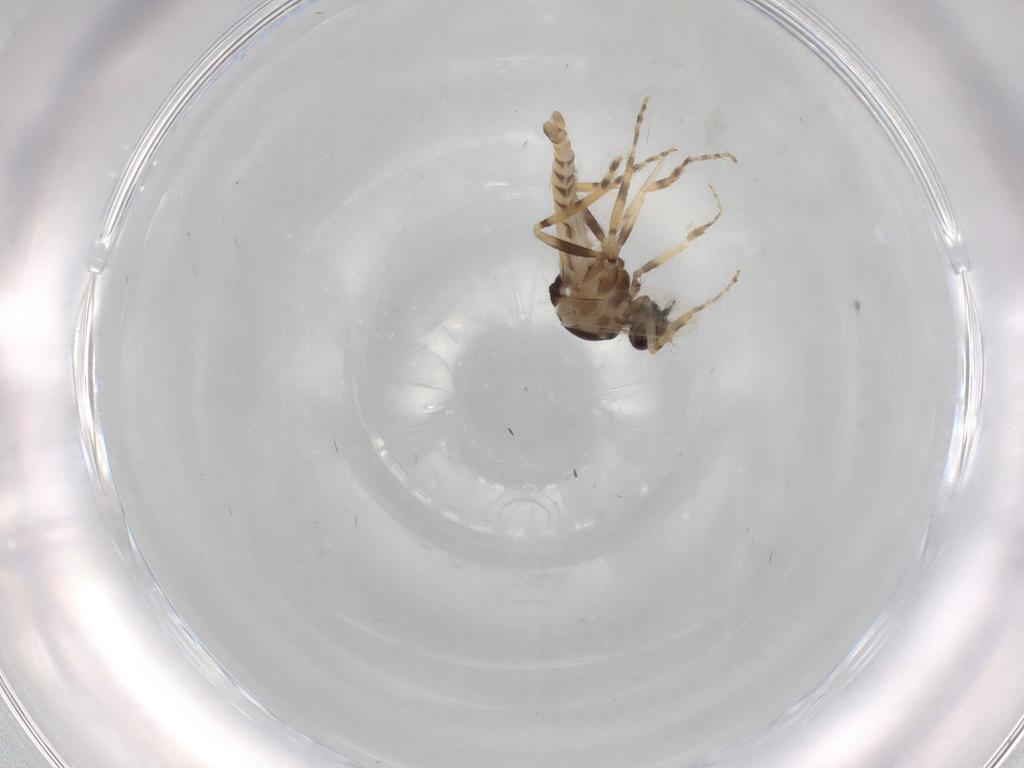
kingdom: Animalia
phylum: Arthropoda
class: Insecta
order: Diptera
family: Ceratopogonidae
